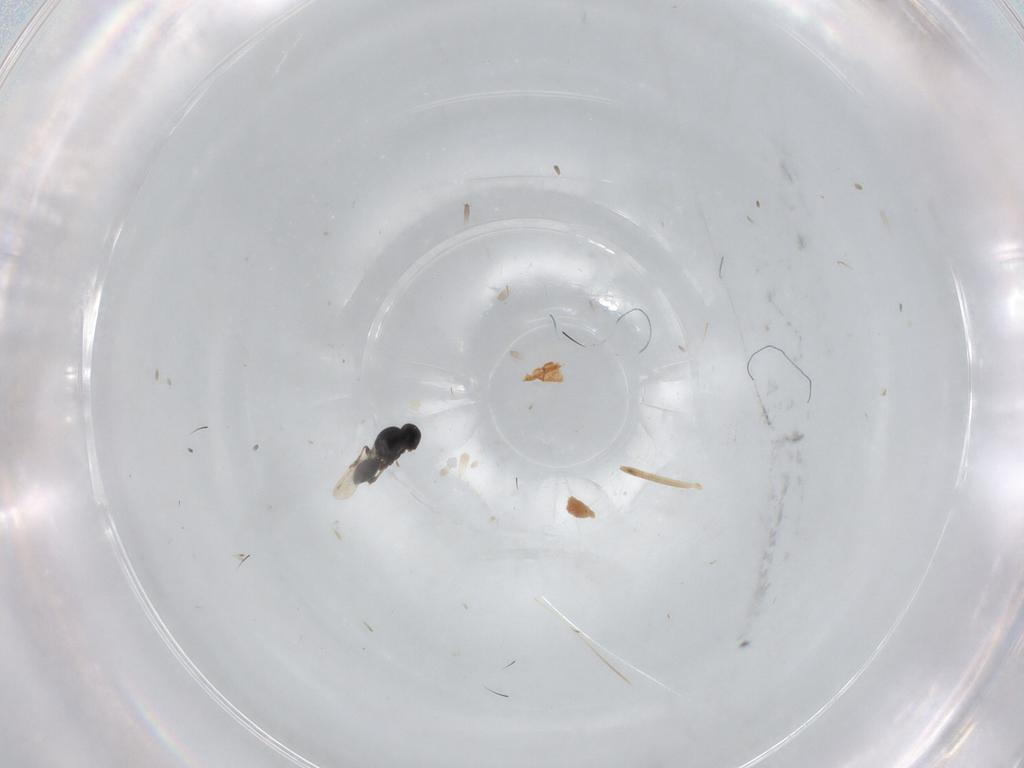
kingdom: Animalia
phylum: Arthropoda
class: Insecta
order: Hymenoptera
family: Platygastridae
